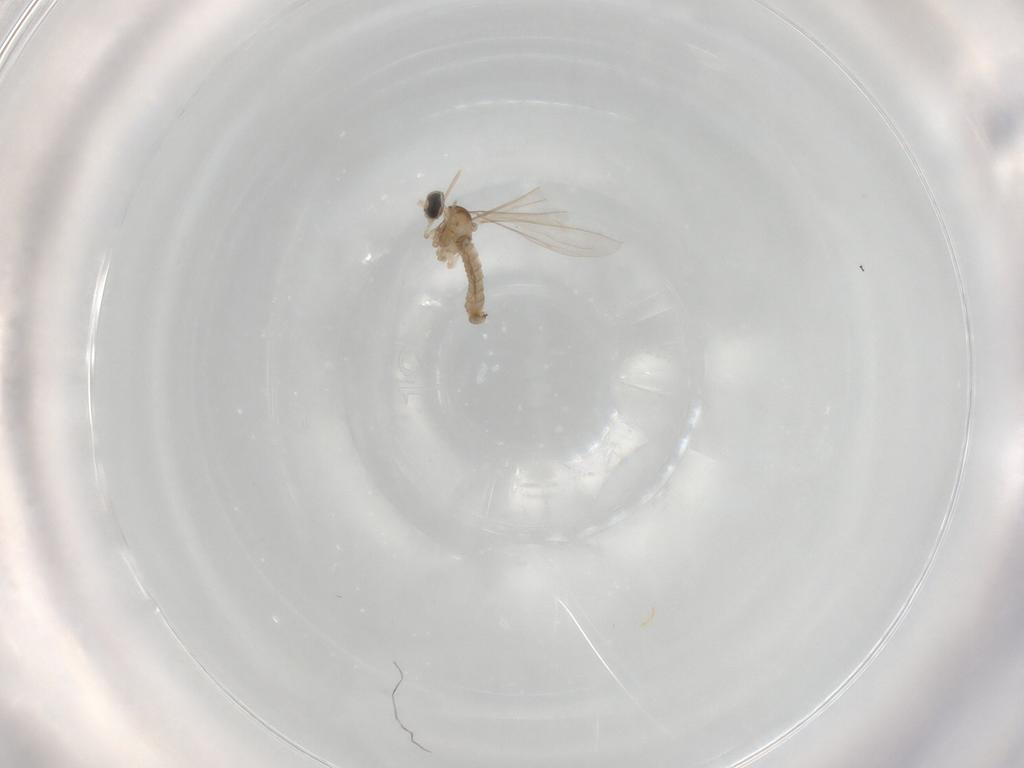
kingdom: Animalia
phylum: Arthropoda
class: Insecta
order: Diptera
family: Cecidomyiidae
